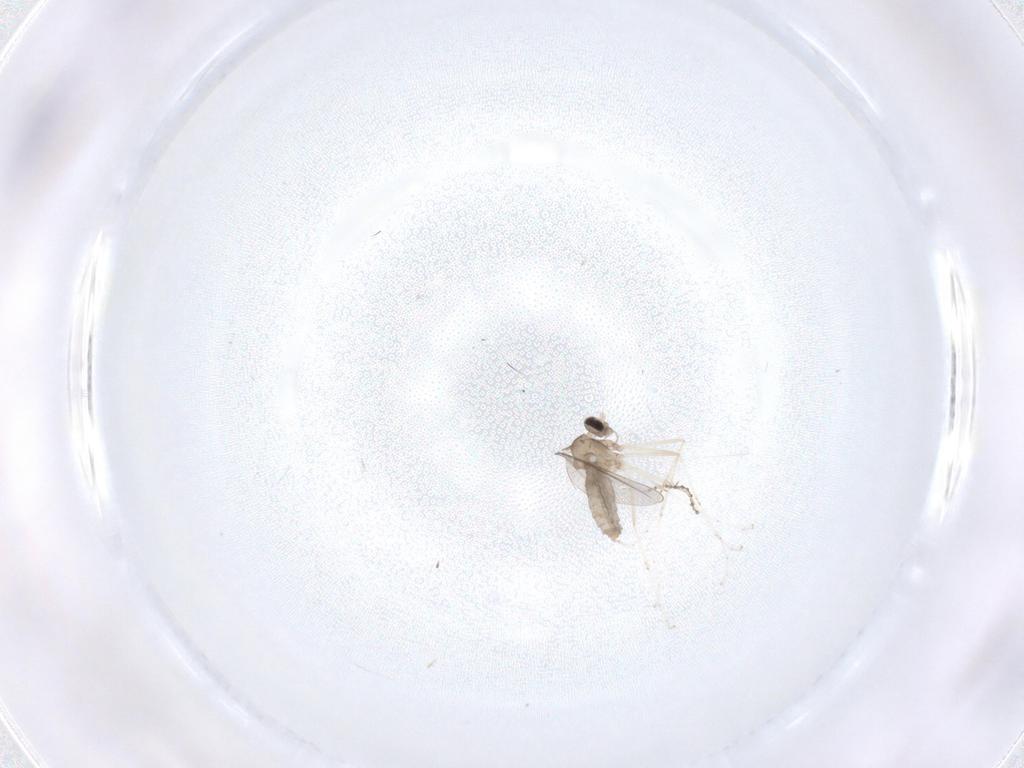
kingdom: Animalia
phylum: Arthropoda
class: Insecta
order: Diptera
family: Cecidomyiidae
